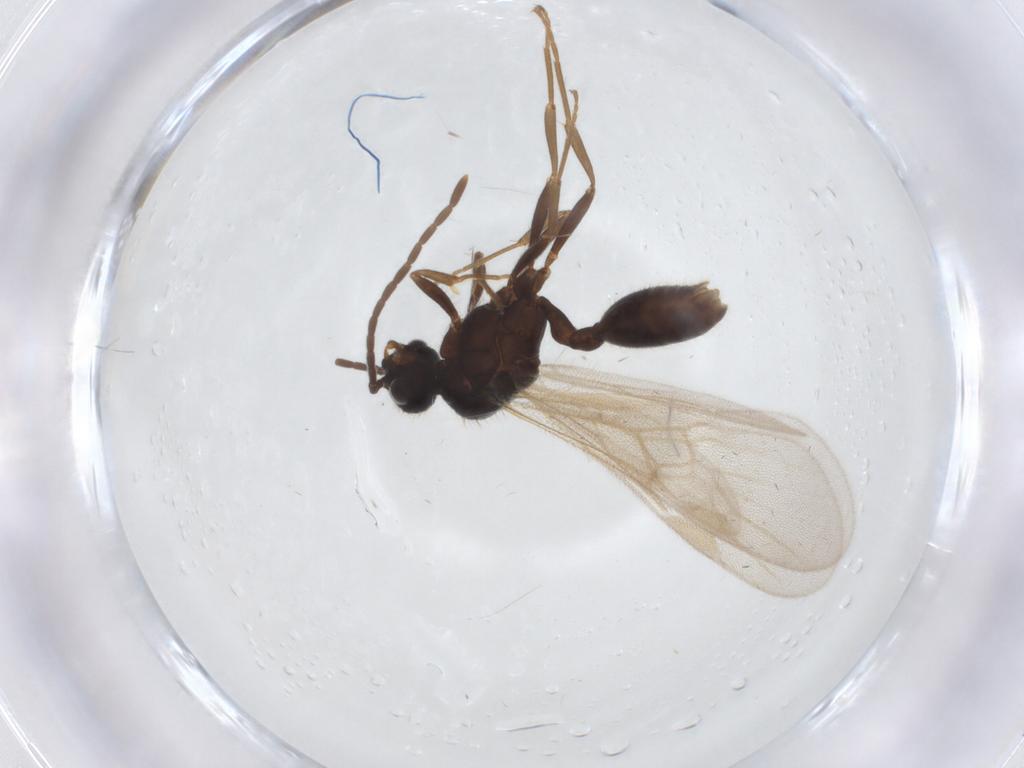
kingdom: Animalia
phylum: Arthropoda
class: Insecta
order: Hymenoptera
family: Formicidae
